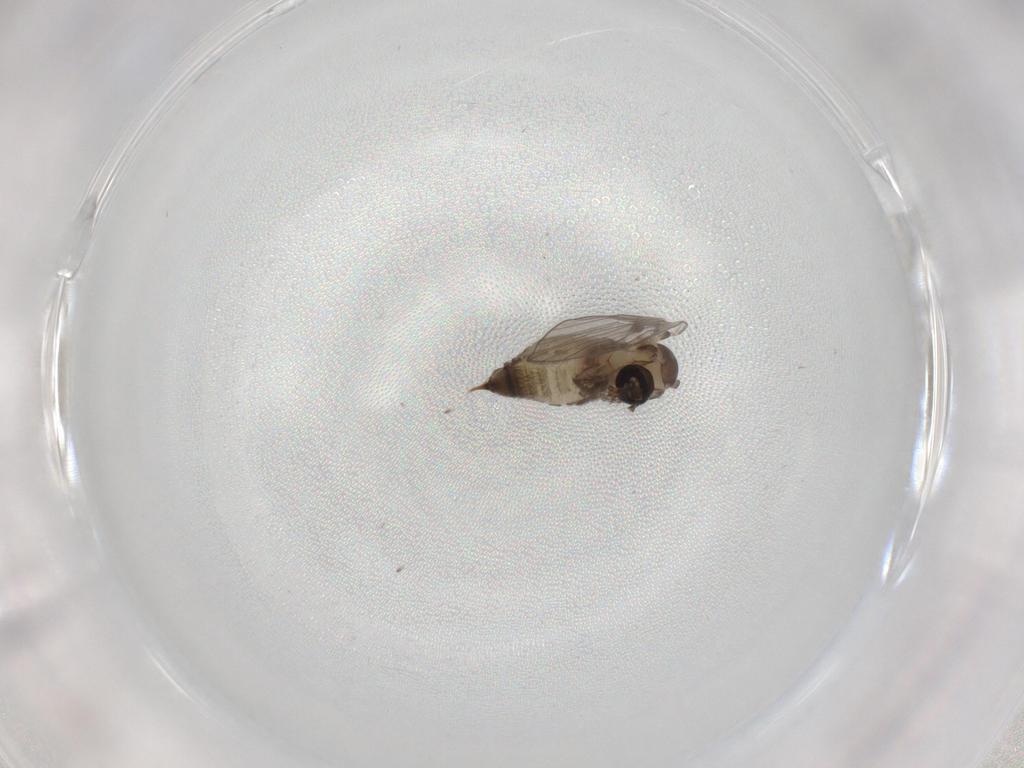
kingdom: Animalia
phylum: Arthropoda
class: Insecta
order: Diptera
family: Psychodidae
